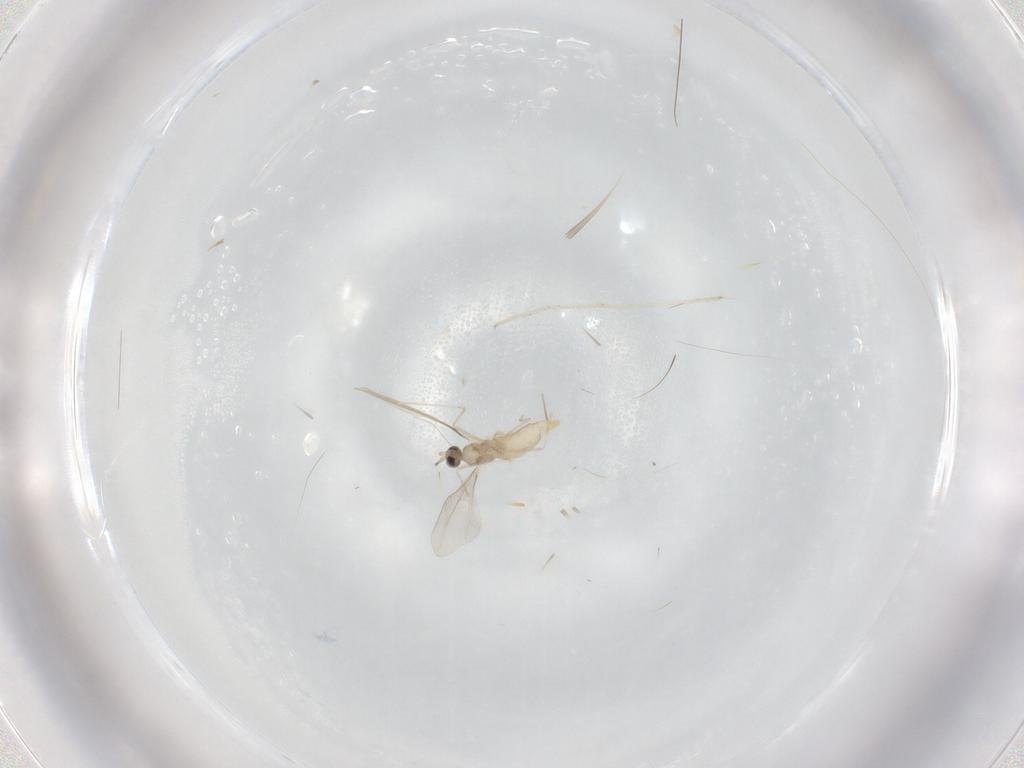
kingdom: Animalia
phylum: Arthropoda
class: Insecta
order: Diptera
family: Cecidomyiidae
